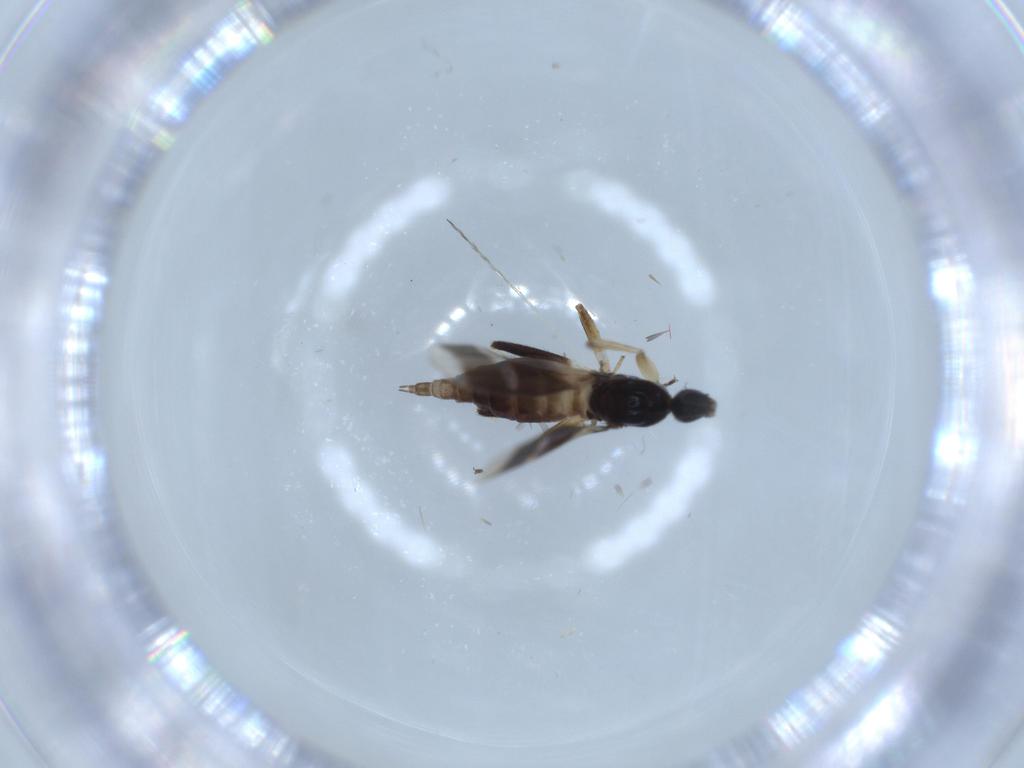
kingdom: Animalia
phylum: Arthropoda
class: Insecta
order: Diptera
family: Hybotidae
